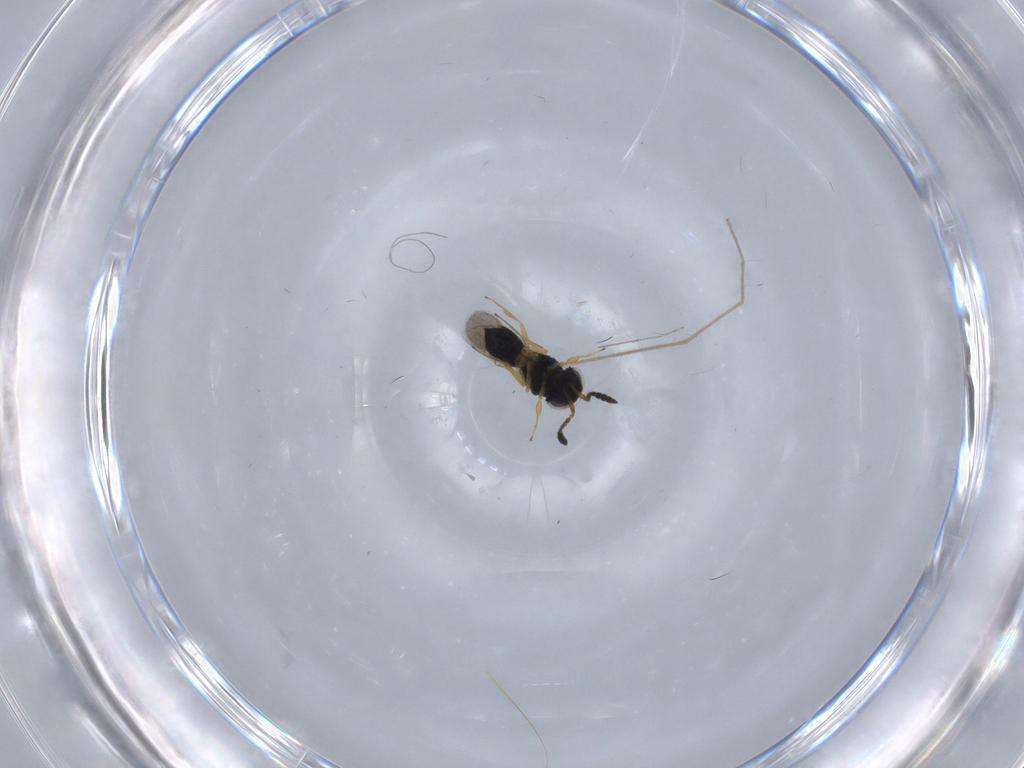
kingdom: Animalia
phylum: Arthropoda
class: Insecta
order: Hymenoptera
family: Scelionidae
